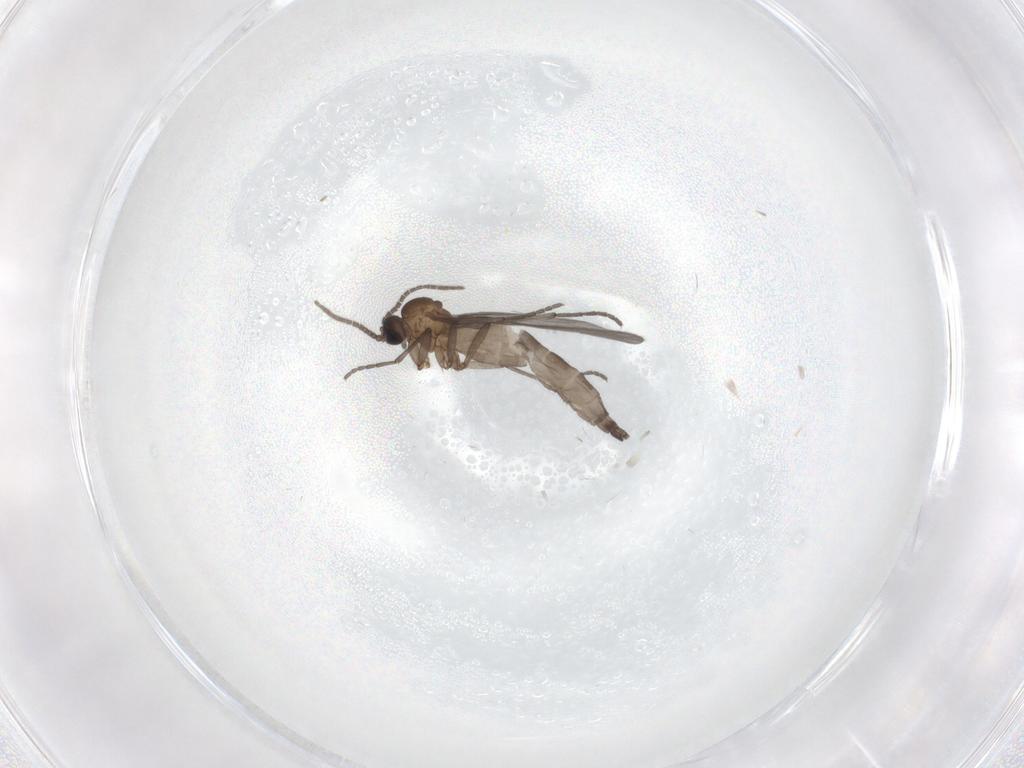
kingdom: Animalia
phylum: Arthropoda
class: Insecta
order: Diptera
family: Sciaridae
